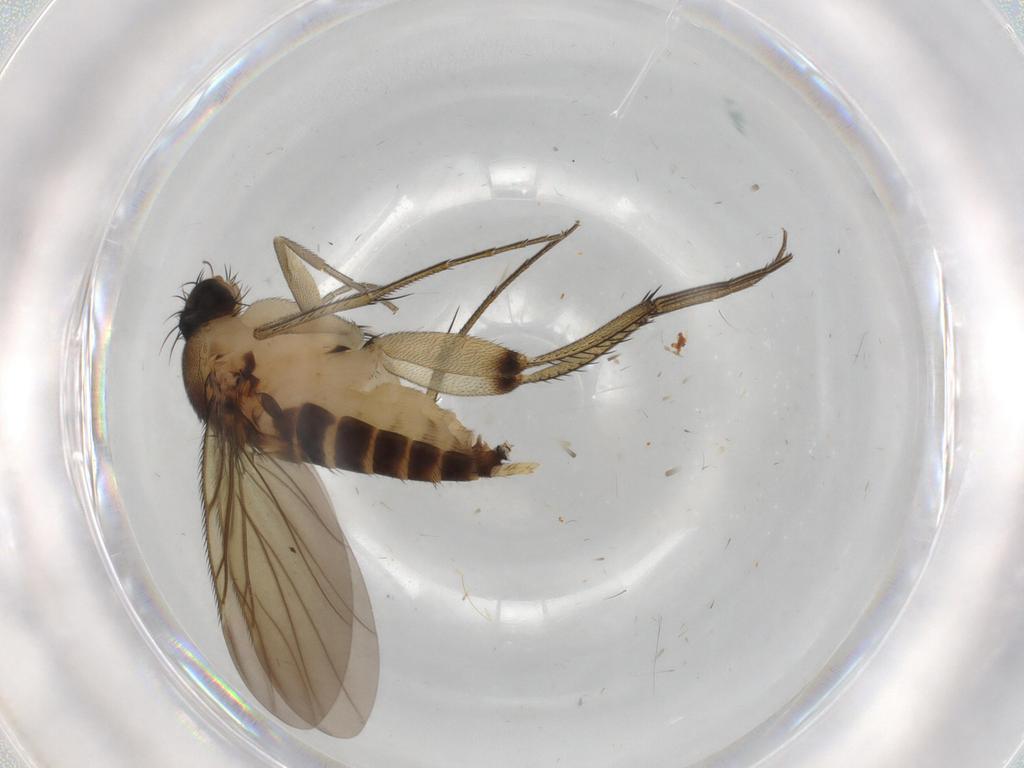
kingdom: Animalia
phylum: Arthropoda
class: Insecta
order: Diptera
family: Phoridae
